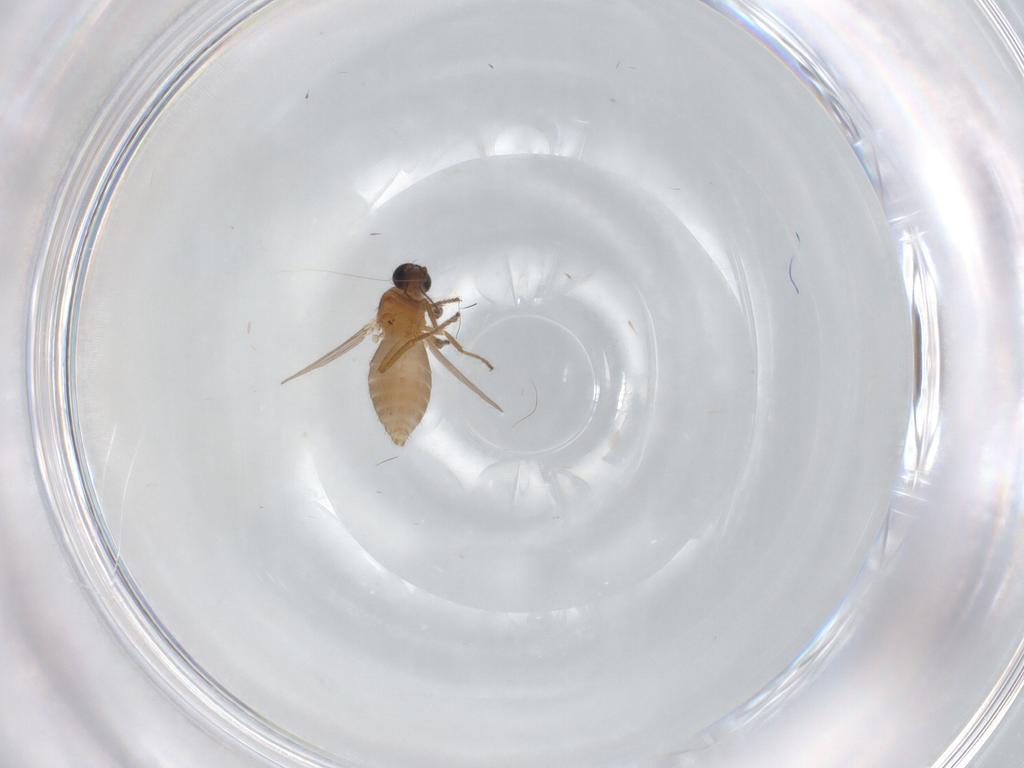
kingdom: Animalia
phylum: Arthropoda
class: Insecta
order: Diptera
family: Ceratopogonidae
